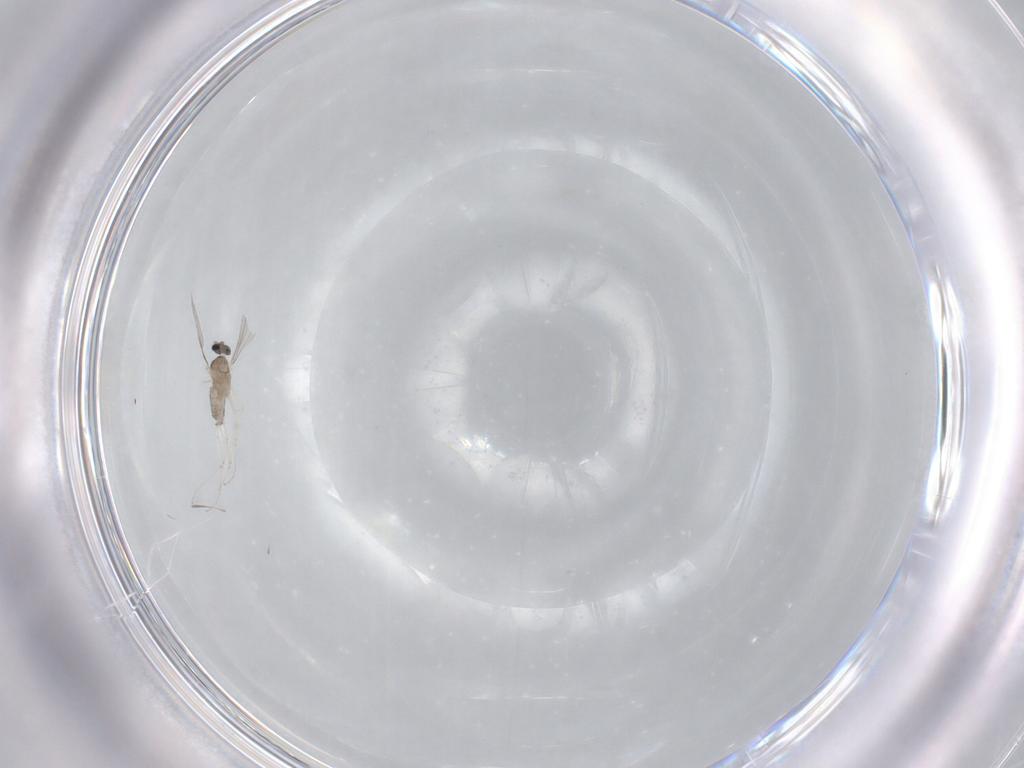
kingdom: Animalia
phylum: Arthropoda
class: Insecta
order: Diptera
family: Cecidomyiidae
